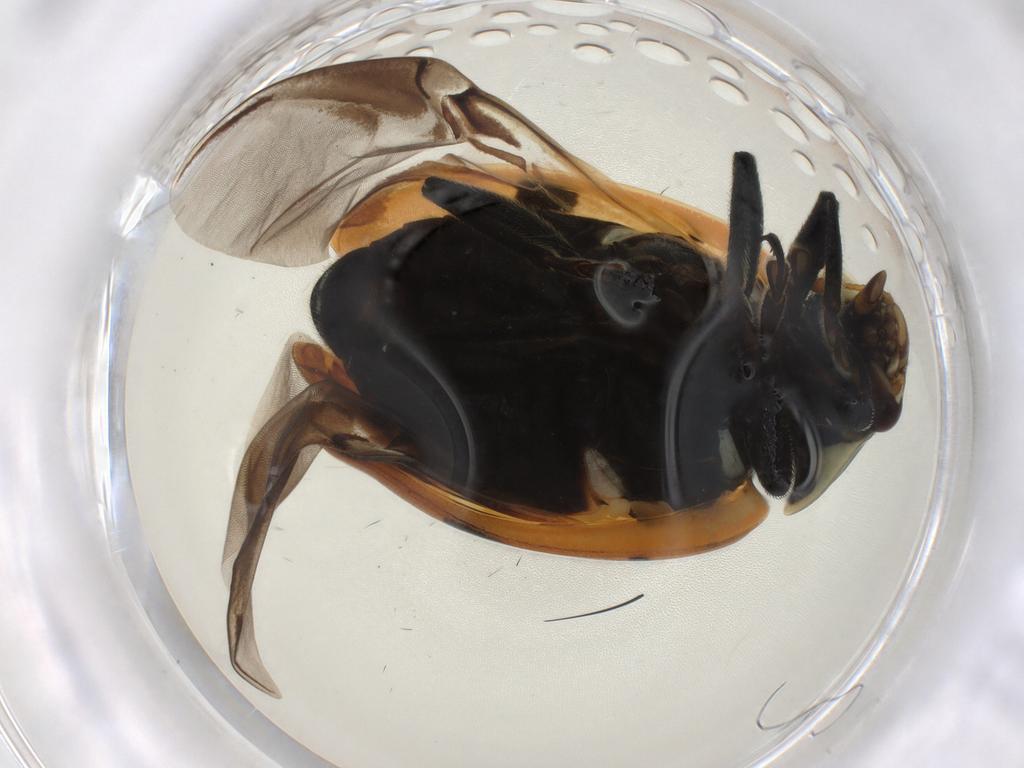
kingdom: Animalia
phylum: Arthropoda
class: Insecta
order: Coleoptera
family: Coccinellidae
